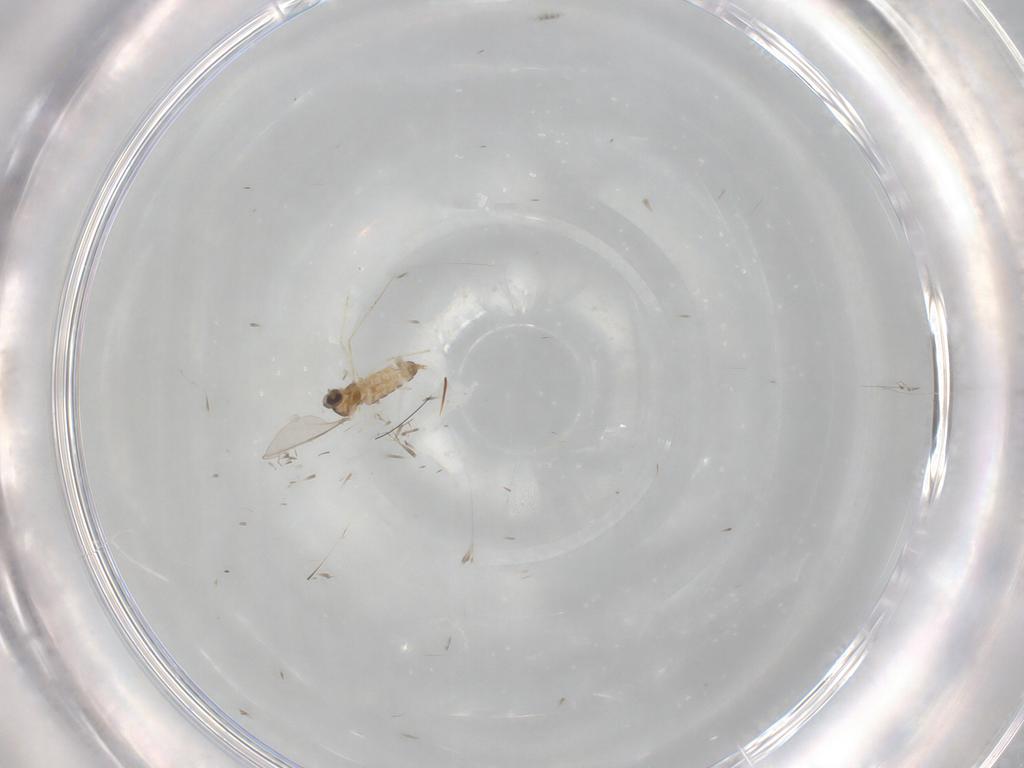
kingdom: Animalia
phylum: Arthropoda
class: Insecta
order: Diptera
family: Cecidomyiidae
